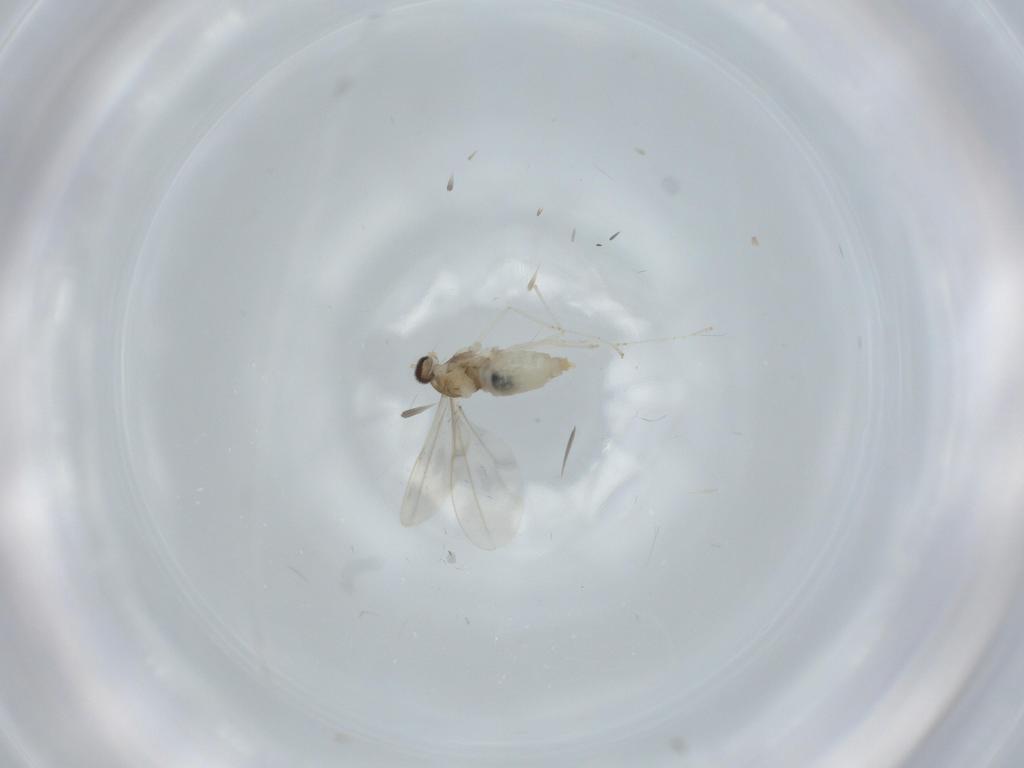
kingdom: Animalia
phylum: Arthropoda
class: Insecta
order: Diptera
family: Cecidomyiidae
